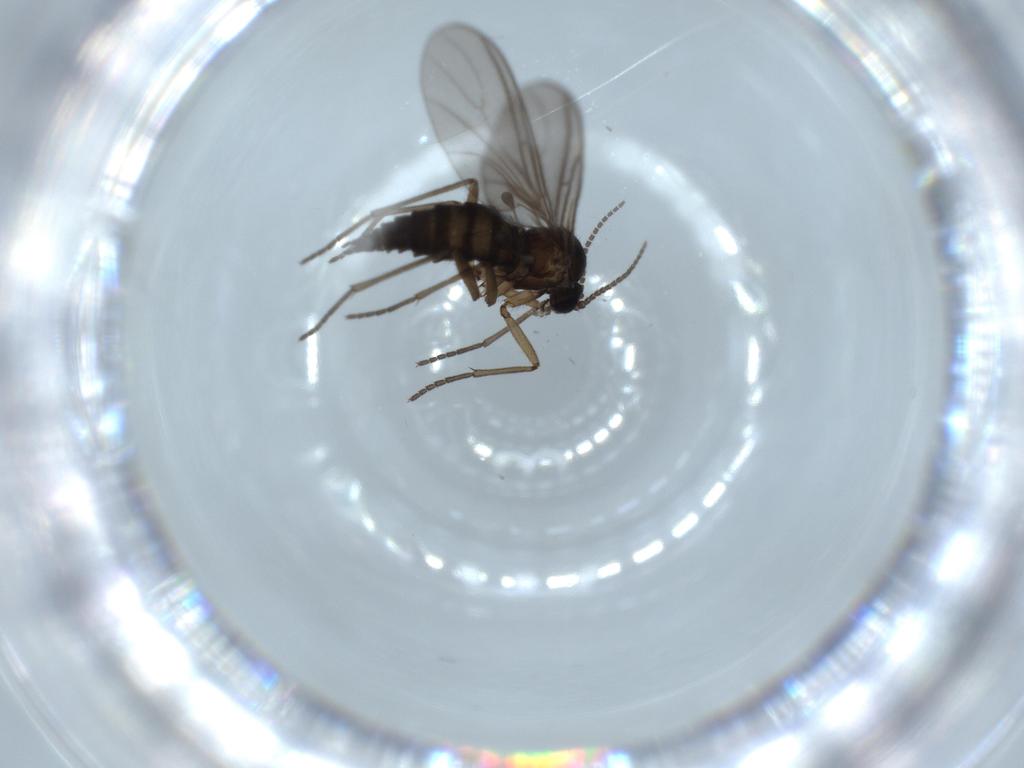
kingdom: Animalia
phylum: Arthropoda
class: Insecta
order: Diptera
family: Sciaridae
